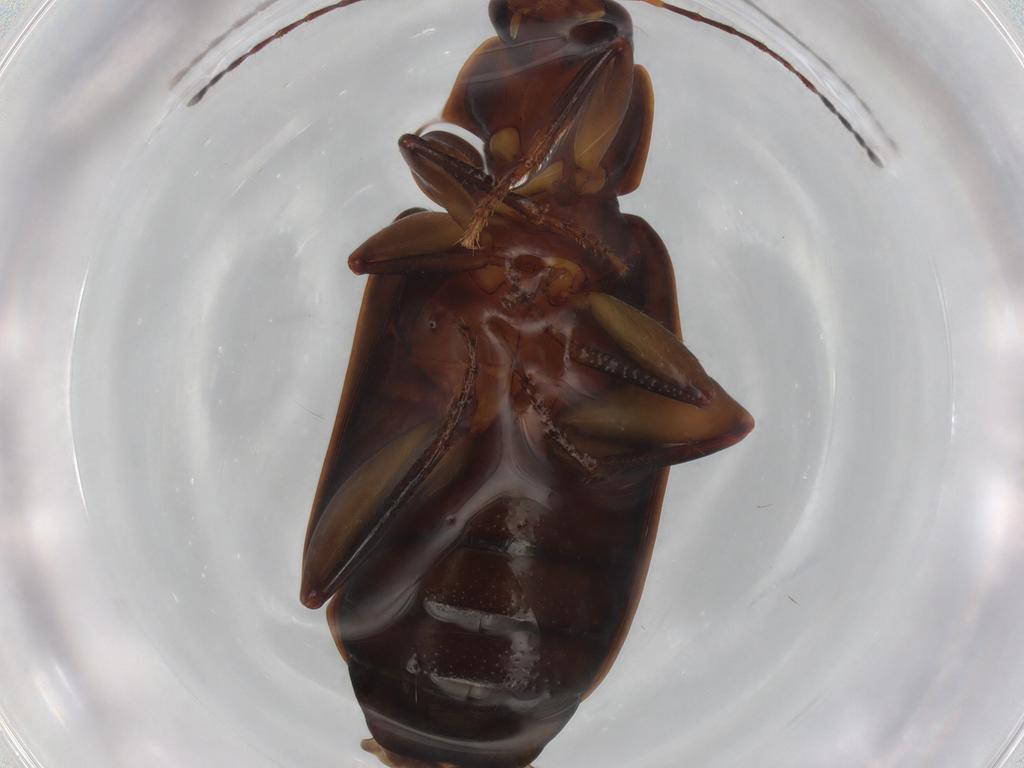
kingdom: Animalia
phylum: Arthropoda
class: Insecta
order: Coleoptera
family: Carabidae
